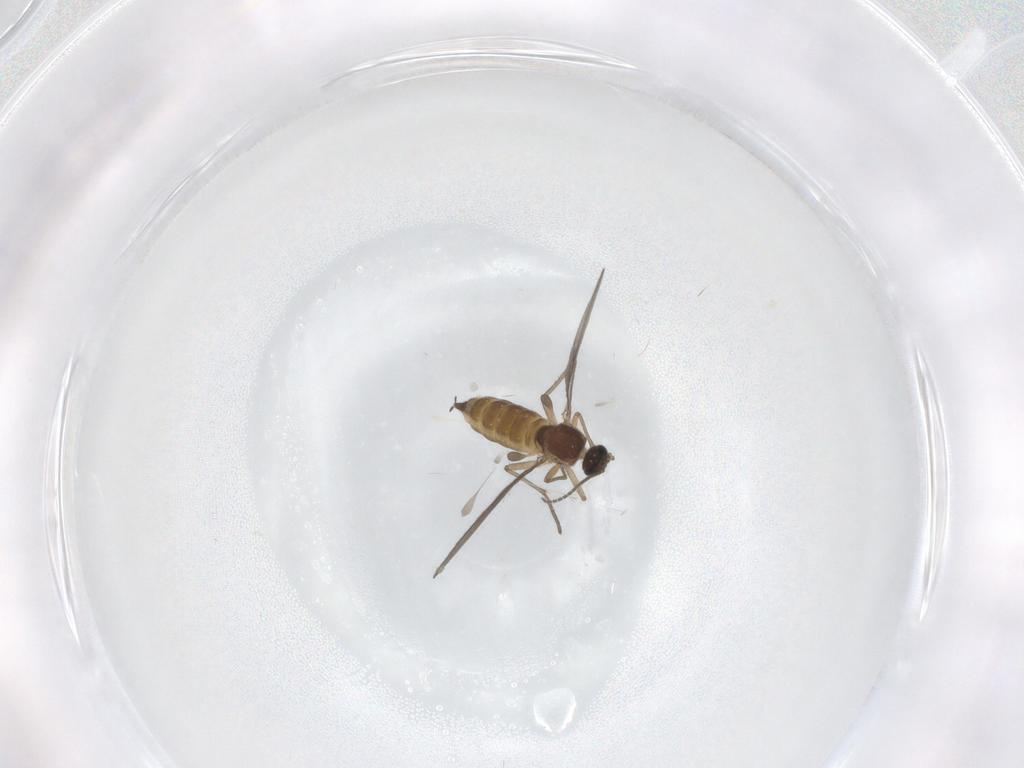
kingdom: Animalia
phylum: Arthropoda
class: Insecta
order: Diptera
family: Sciaridae
